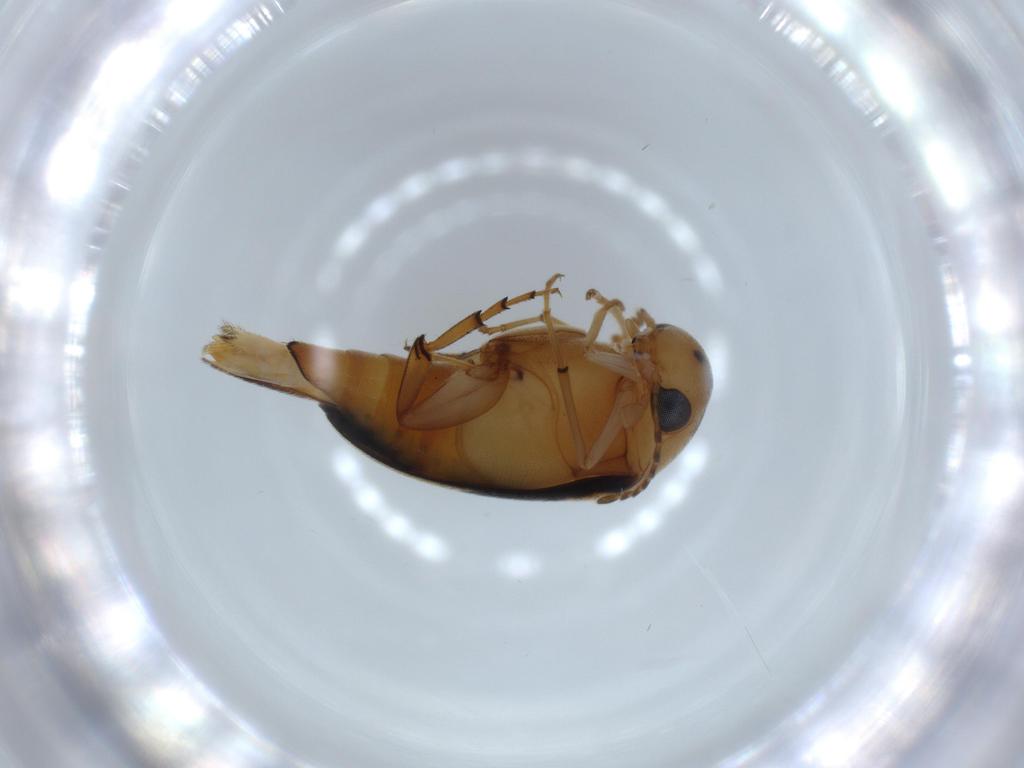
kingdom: Animalia
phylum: Arthropoda
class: Insecta
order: Coleoptera
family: Mordellidae
